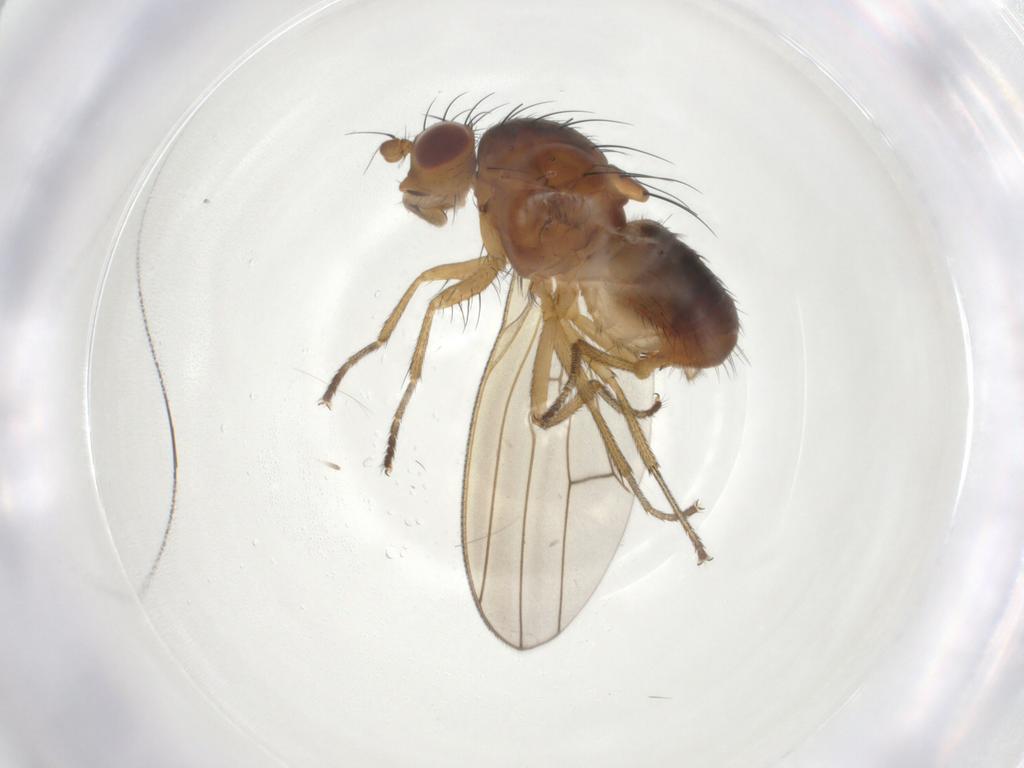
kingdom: Animalia
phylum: Arthropoda
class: Insecta
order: Diptera
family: Lauxaniidae
